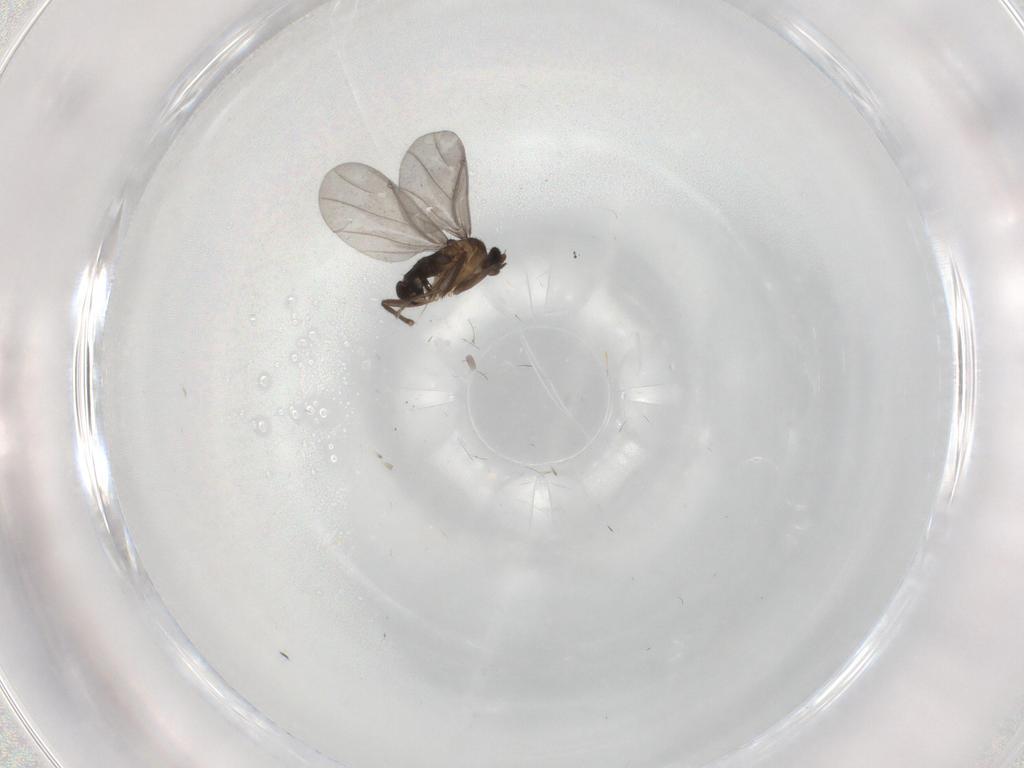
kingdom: Animalia
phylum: Arthropoda
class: Insecta
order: Diptera
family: Phoridae
